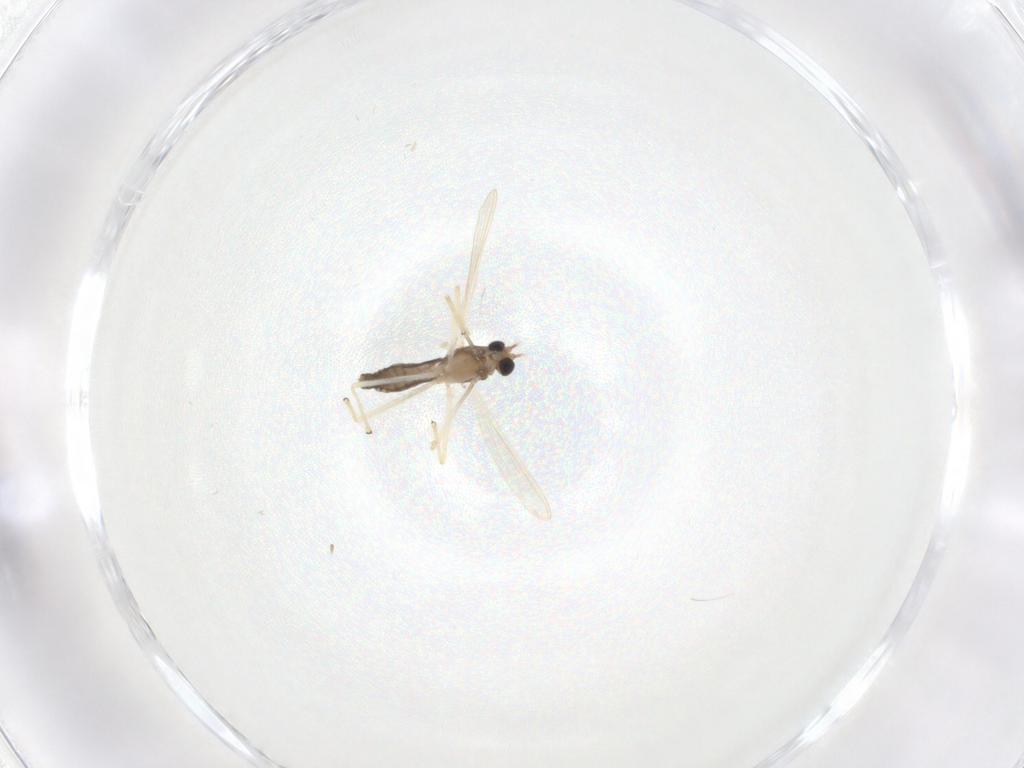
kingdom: Animalia
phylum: Arthropoda
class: Insecta
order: Diptera
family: Chironomidae
